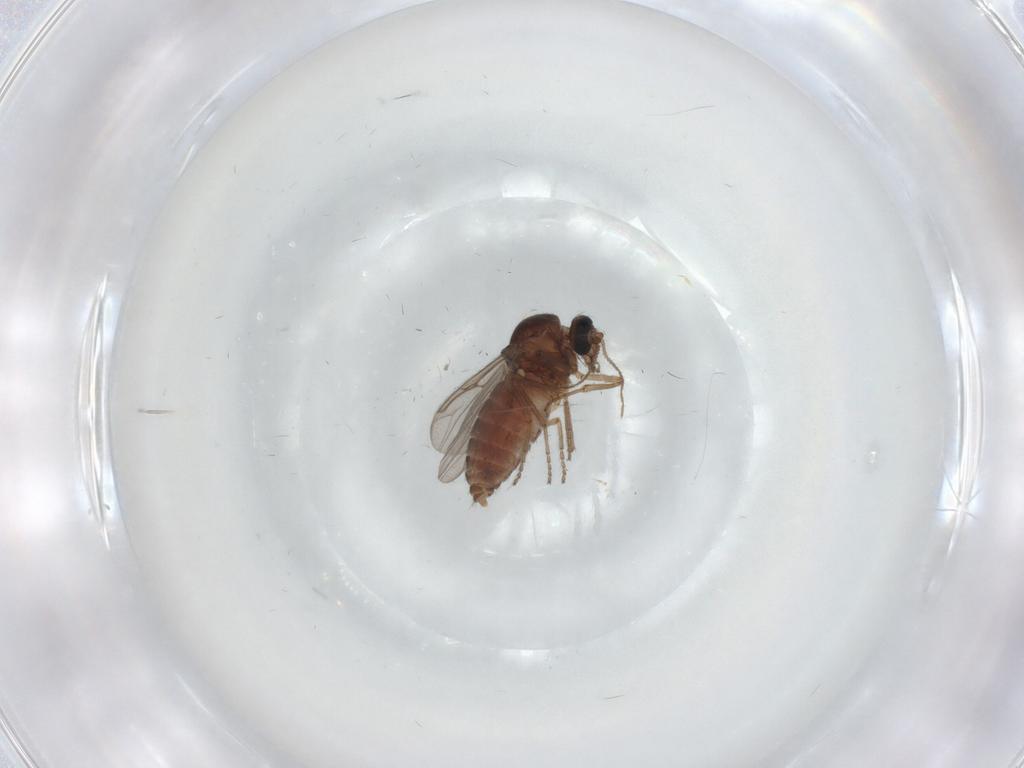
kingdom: Animalia
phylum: Arthropoda
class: Insecta
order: Diptera
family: Ceratopogonidae
